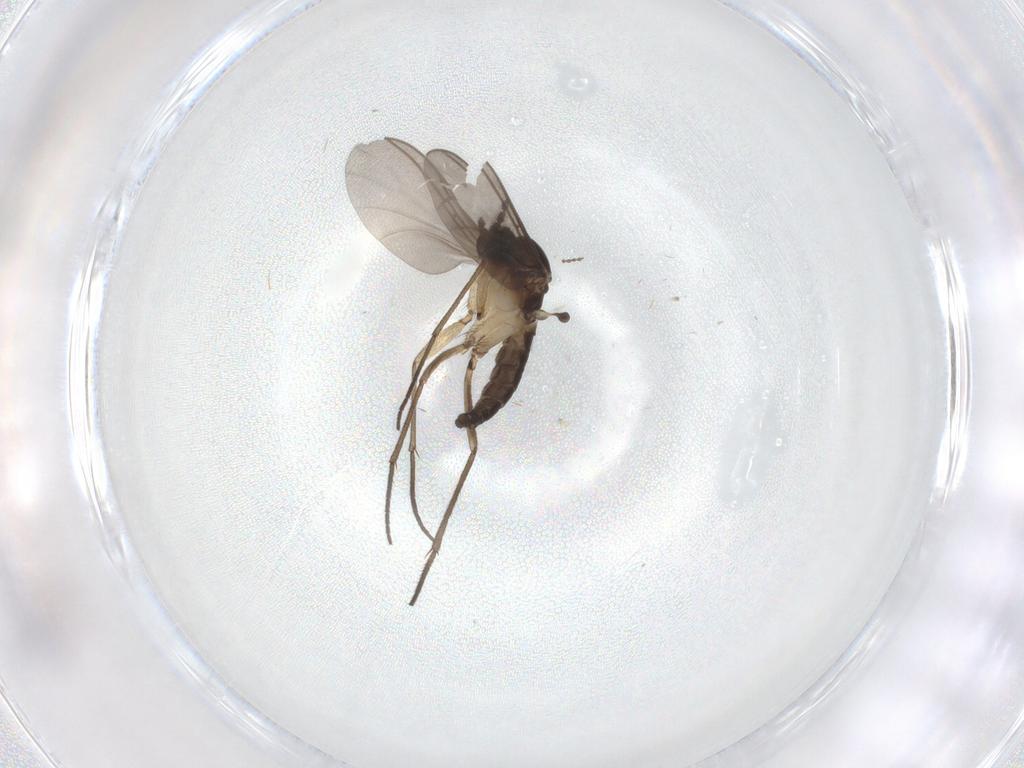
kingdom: Animalia
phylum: Arthropoda
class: Insecta
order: Diptera
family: Sciaridae
